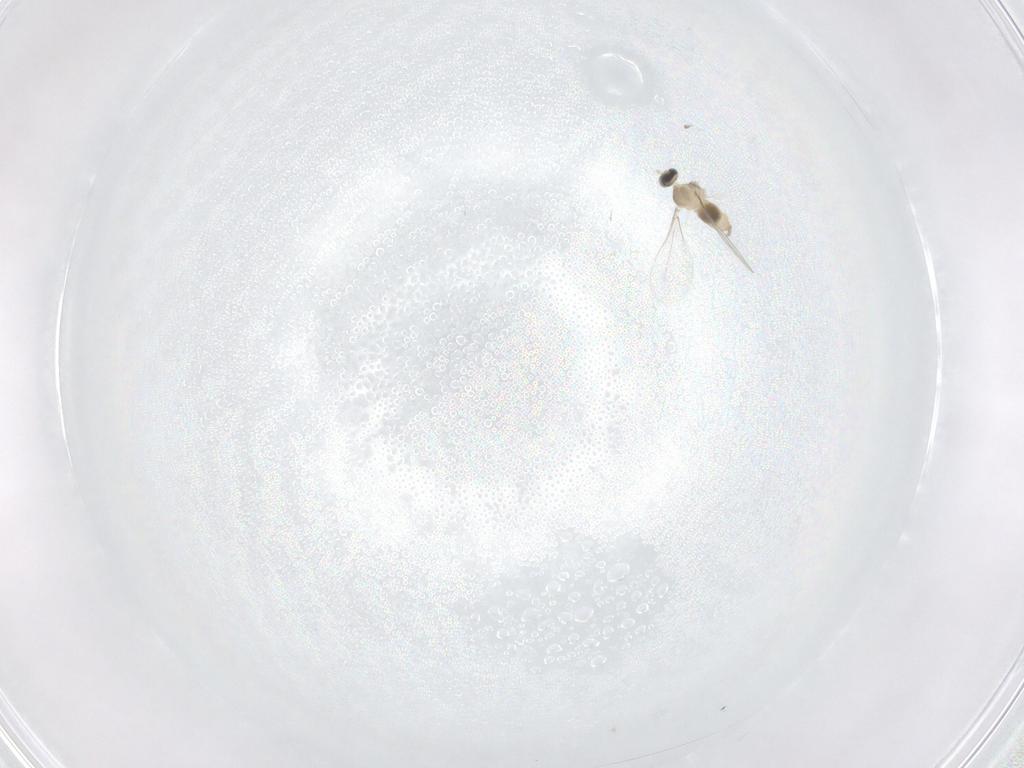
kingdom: Animalia
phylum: Arthropoda
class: Insecta
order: Diptera
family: Cecidomyiidae
